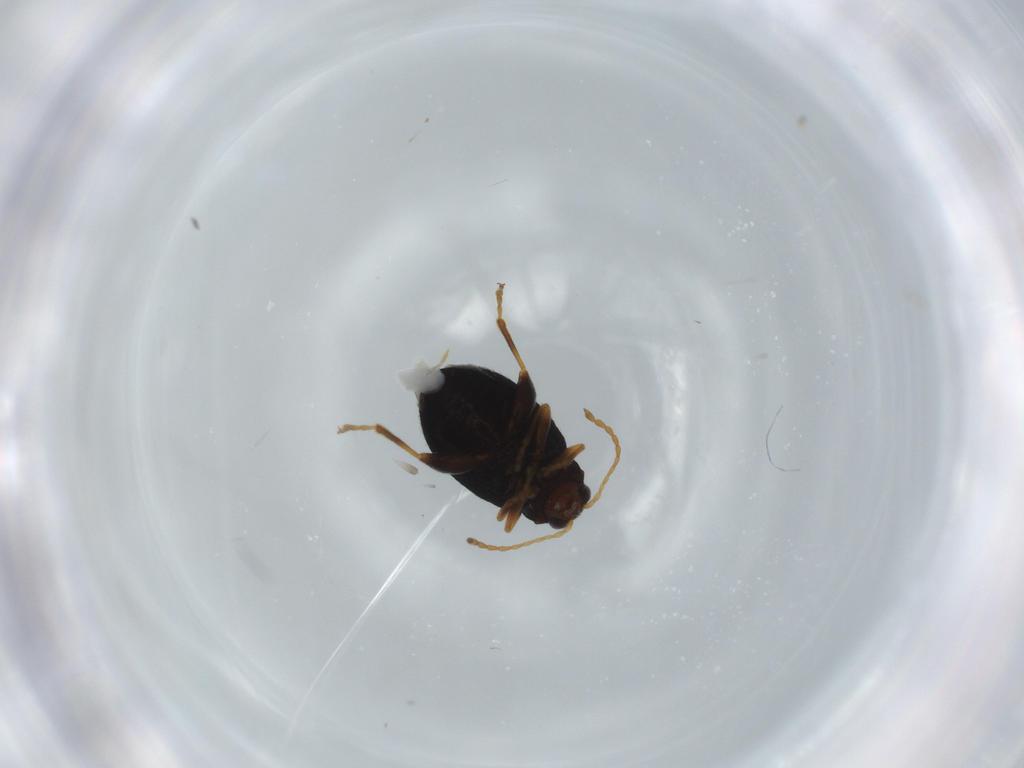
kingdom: Animalia
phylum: Arthropoda
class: Insecta
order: Coleoptera
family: Chrysomelidae
